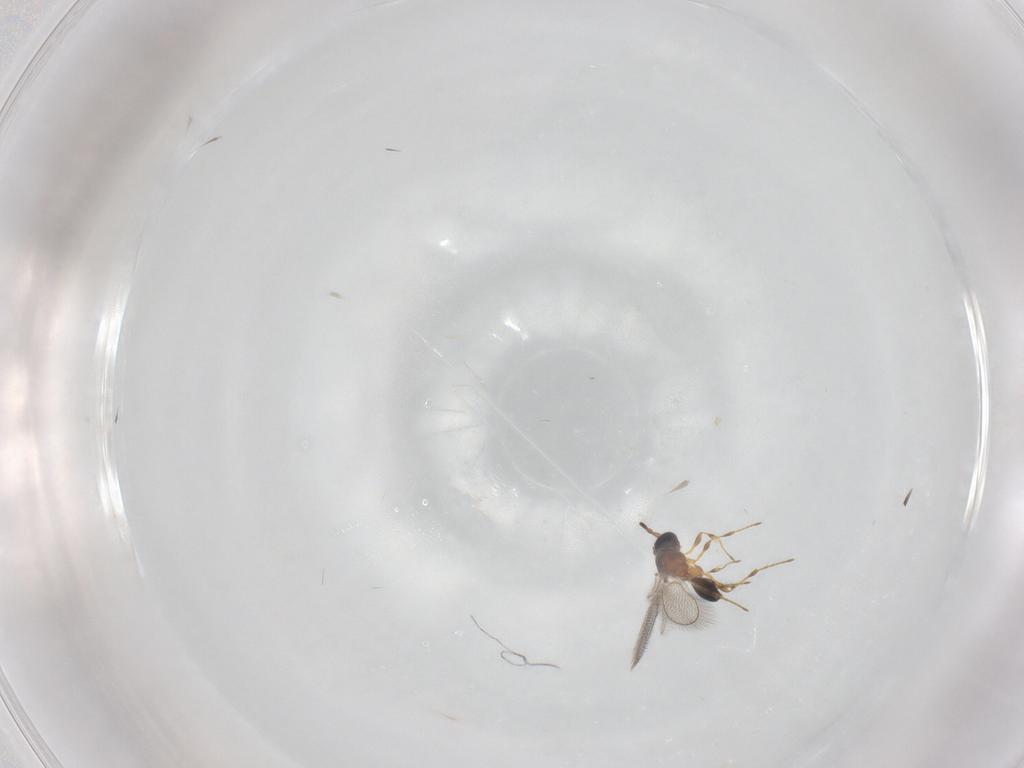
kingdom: Animalia
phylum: Arthropoda
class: Insecta
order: Hymenoptera
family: Diapriidae
